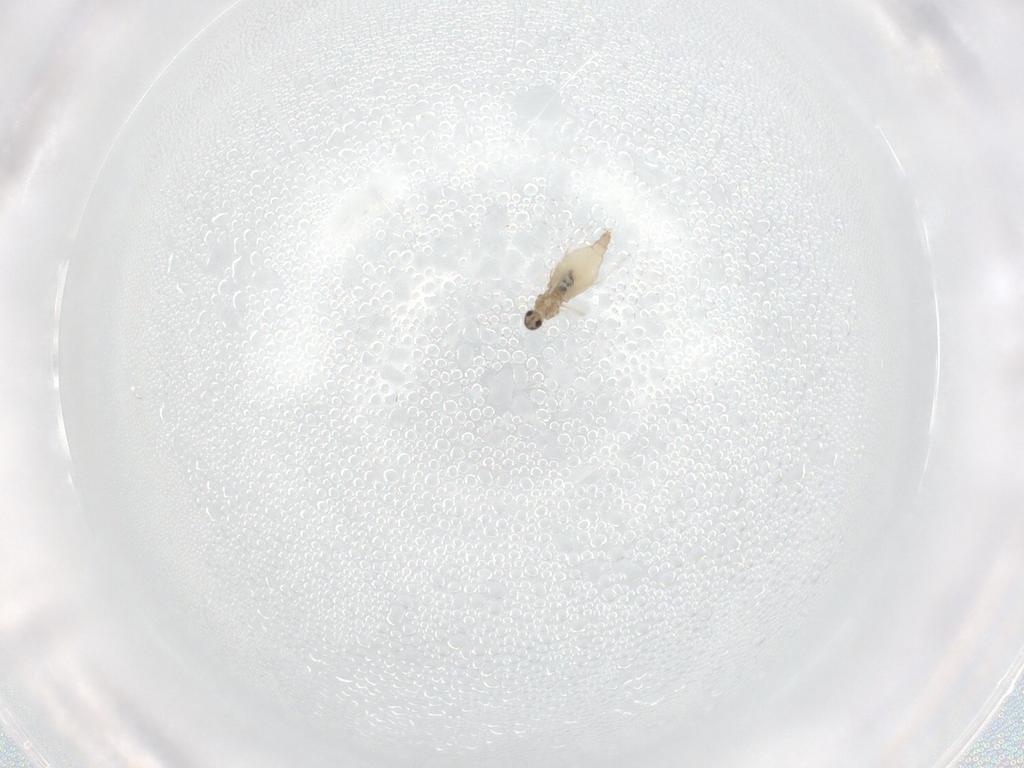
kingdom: Animalia
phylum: Arthropoda
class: Insecta
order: Diptera
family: Cecidomyiidae
